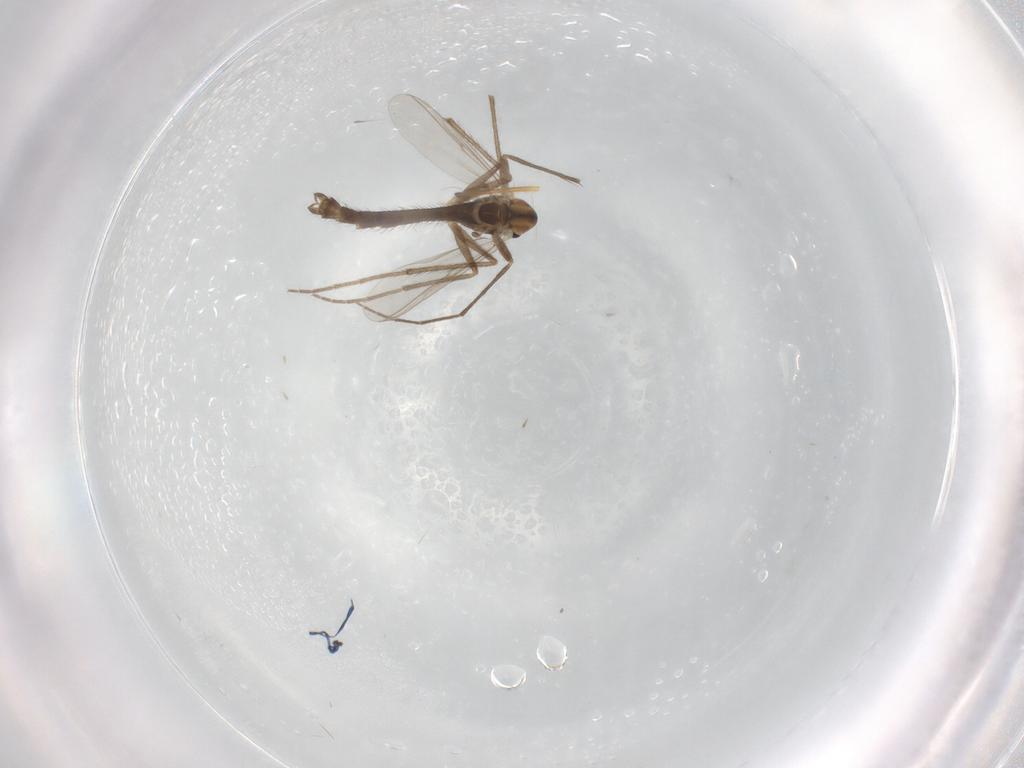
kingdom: Animalia
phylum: Arthropoda
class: Insecta
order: Diptera
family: Chironomidae
